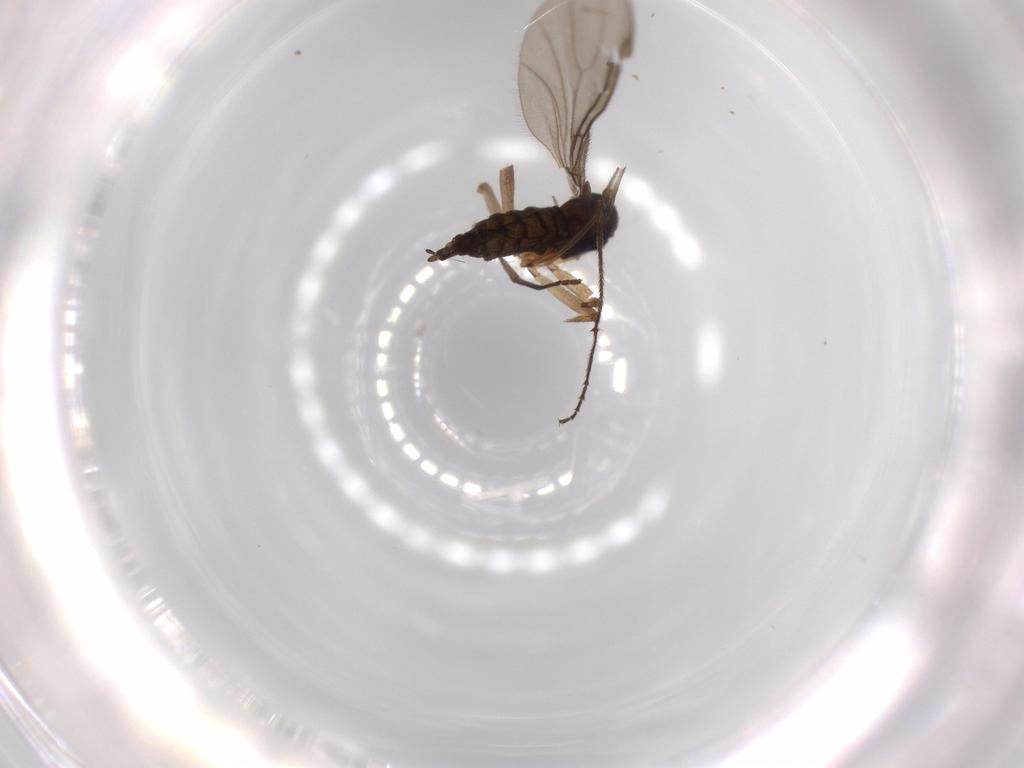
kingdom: Animalia
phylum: Arthropoda
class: Insecta
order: Diptera
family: Sciaridae
